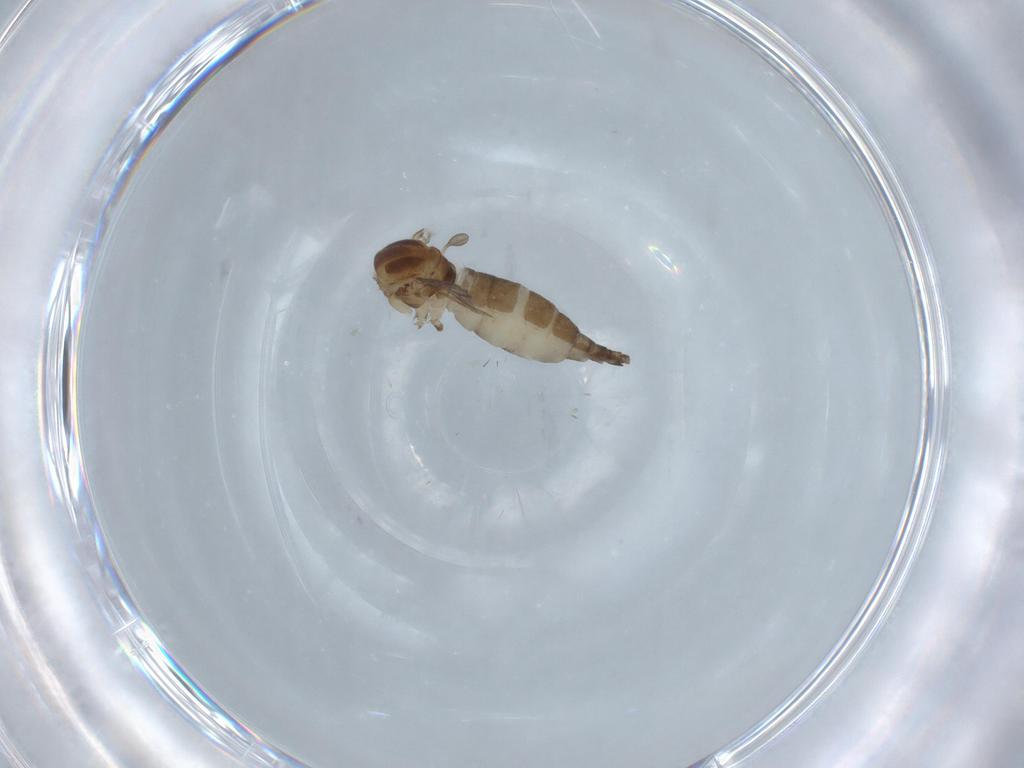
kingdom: Animalia
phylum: Arthropoda
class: Insecta
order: Diptera
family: Sciaridae
